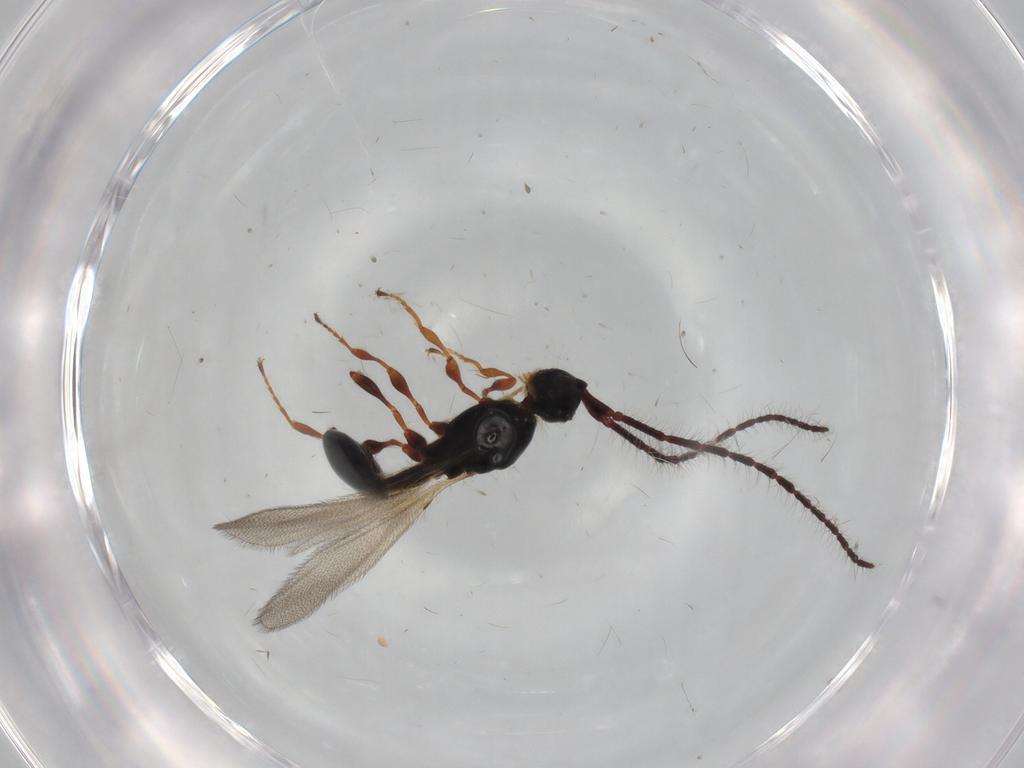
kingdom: Animalia
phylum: Arthropoda
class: Insecta
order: Hymenoptera
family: Diapriidae
